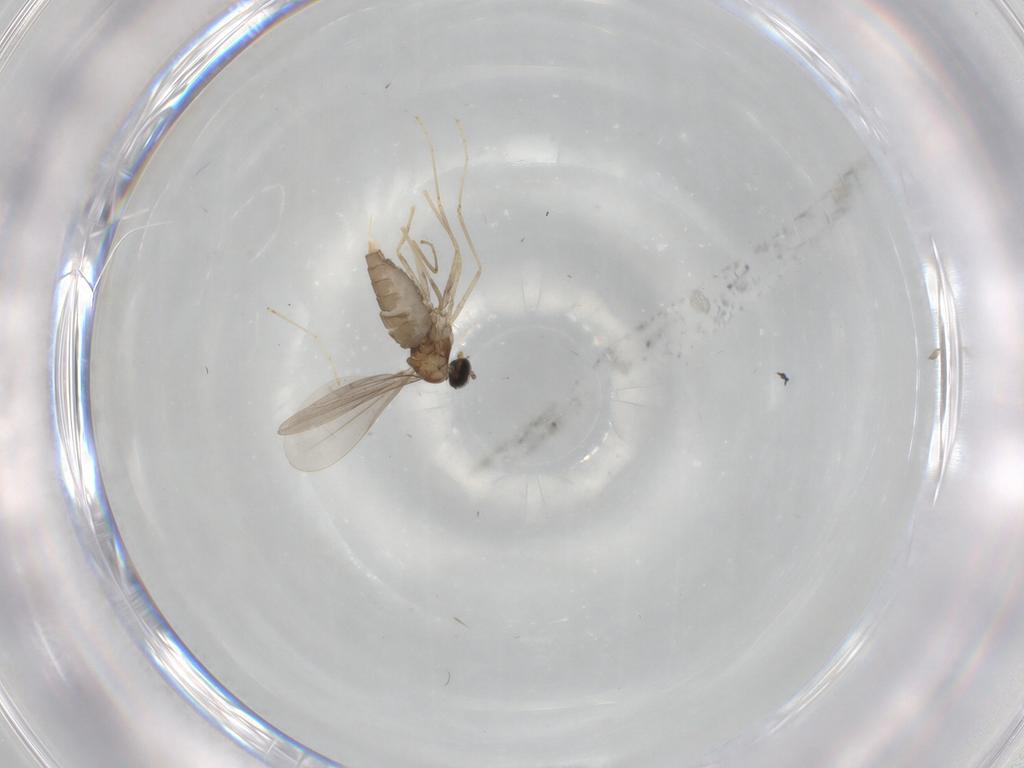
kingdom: Animalia
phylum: Arthropoda
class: Insecta
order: Diptera
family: Cecidomyiidae
